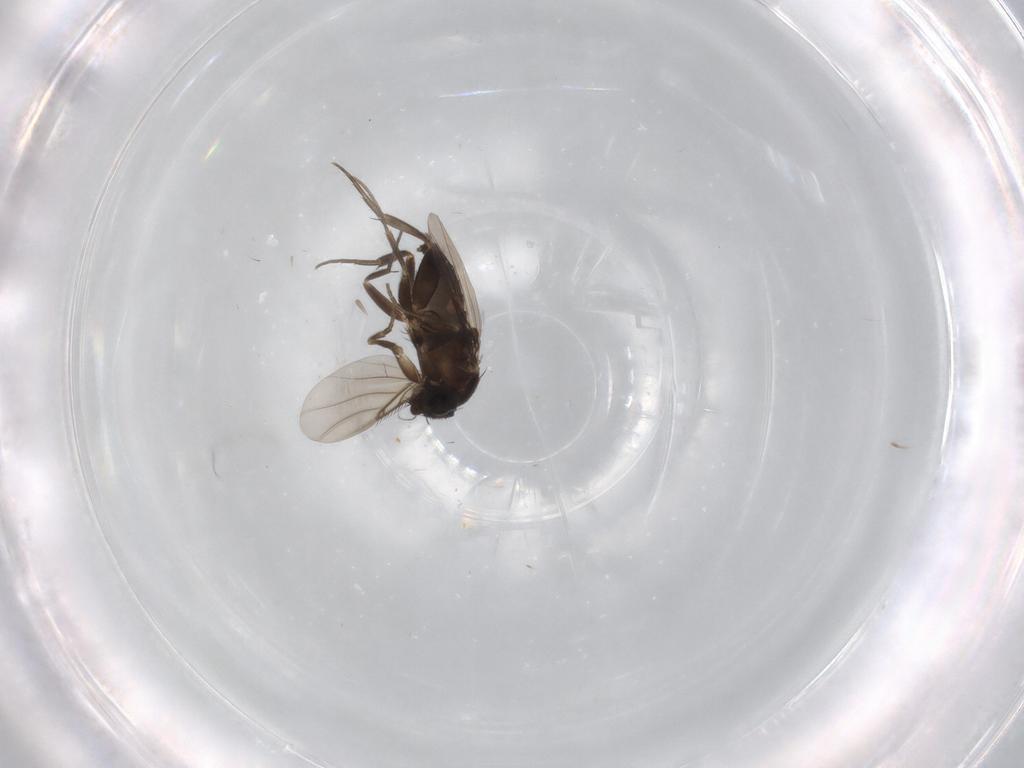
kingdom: Animalia
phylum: Arthropoda
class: Insecta
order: Diptera
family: Phoridae
